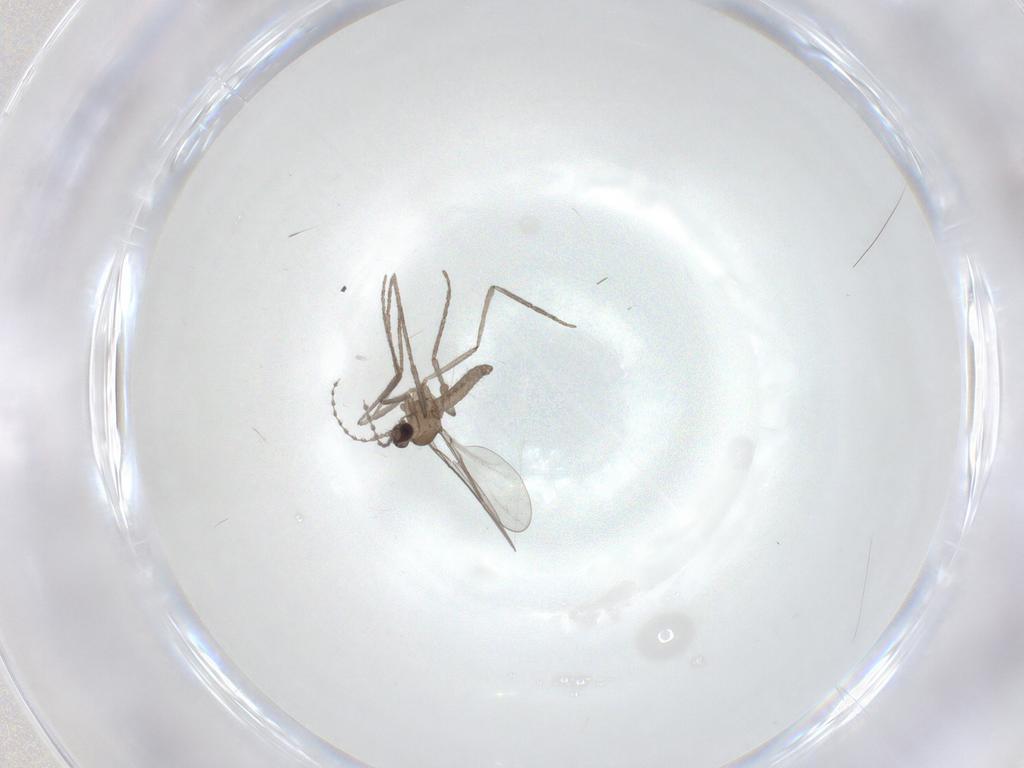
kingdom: Animalia
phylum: Arthropoda
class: Insecta
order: Diptera
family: Cecidomyiidae
